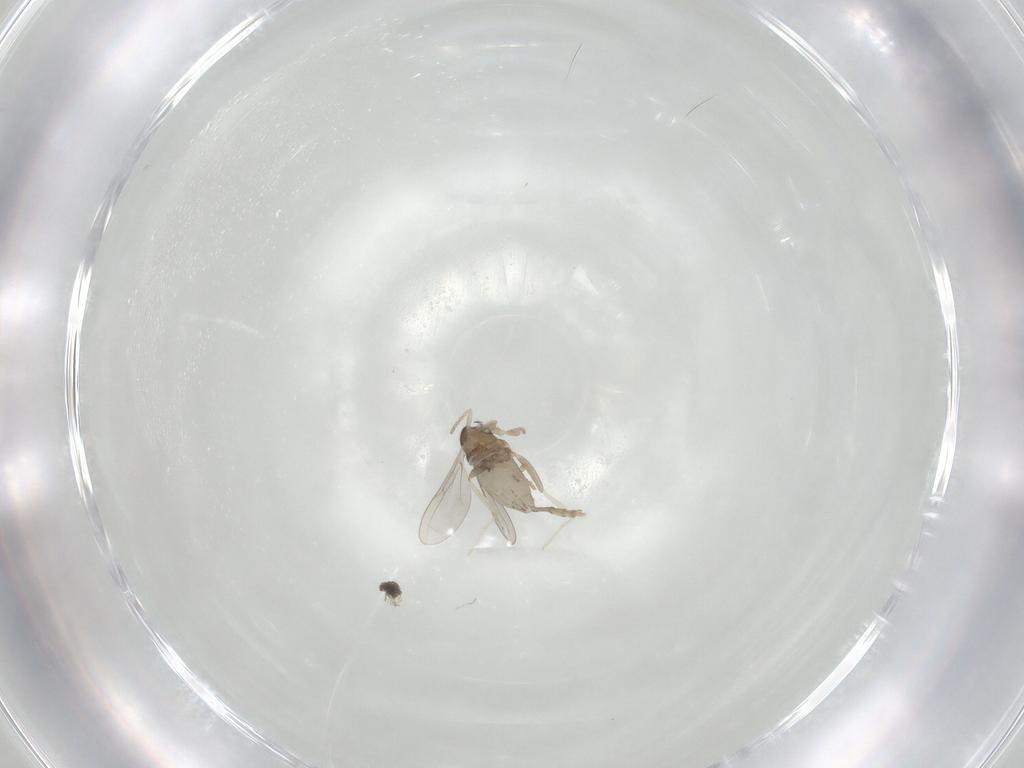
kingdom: Animalia
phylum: Arthropoda
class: Insecta
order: Diptera
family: Cecidomyiidae
